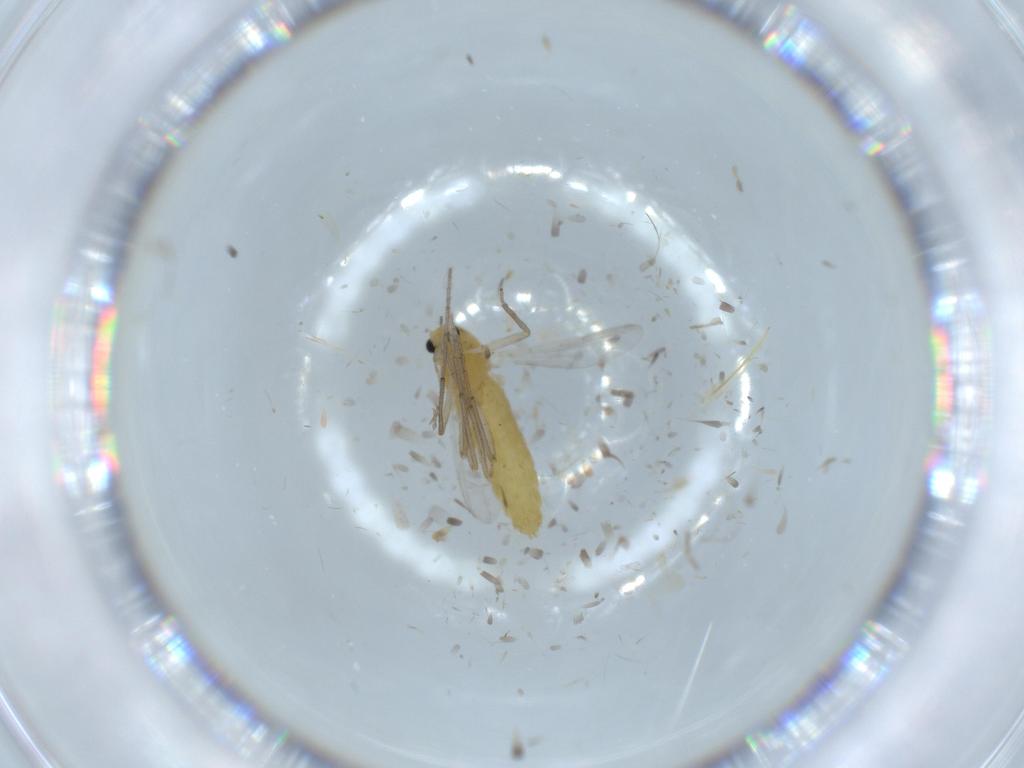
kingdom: Animalia
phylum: Arthropoda
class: Insecta
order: Diptera
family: Chironomidae
